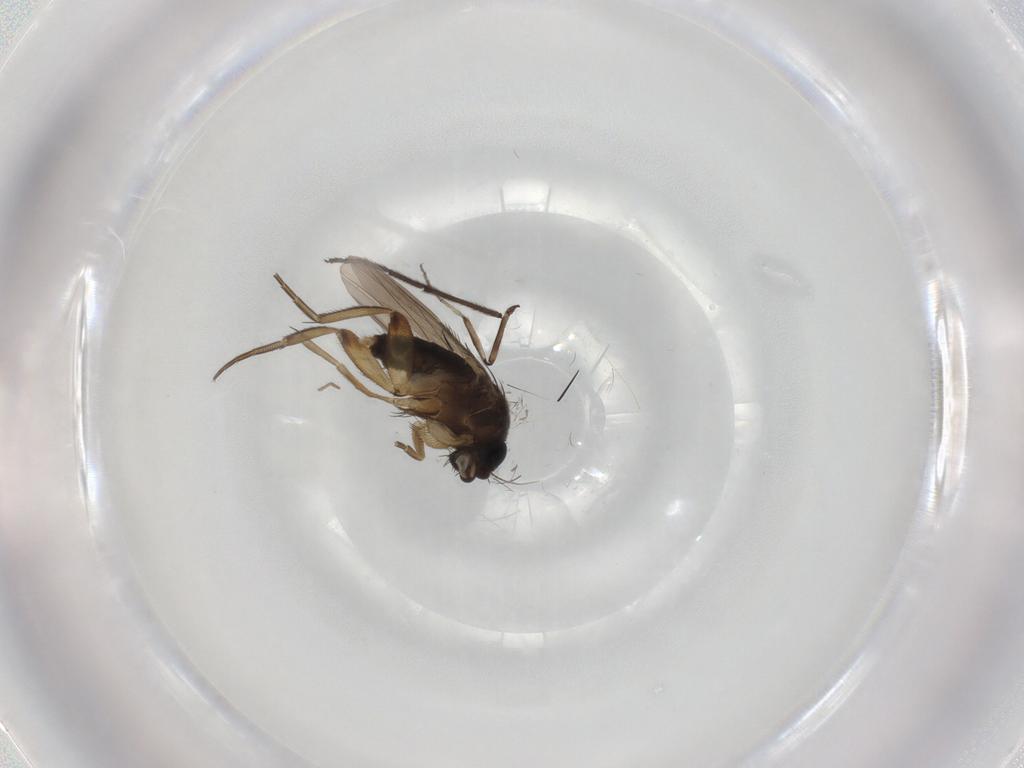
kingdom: Animalia
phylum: Arthropoda
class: Insecta
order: Diptera
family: Phoridae
